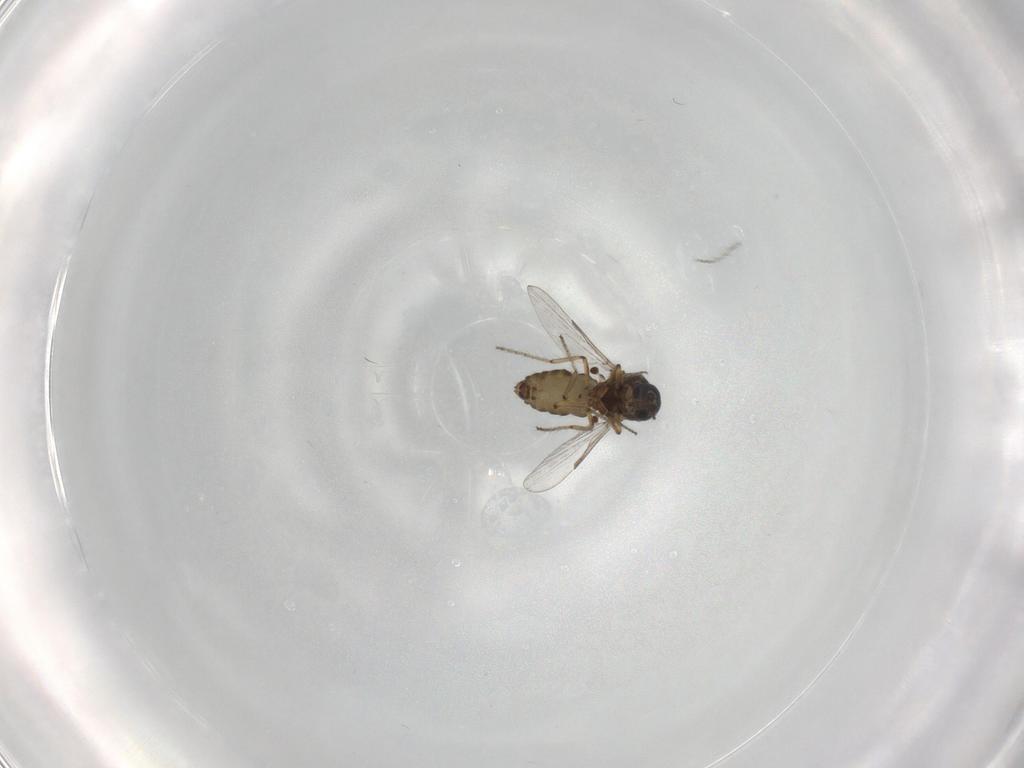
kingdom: Animalia
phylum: Arthropoda
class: Insecta
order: Diptera
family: Ceratopogonidae
